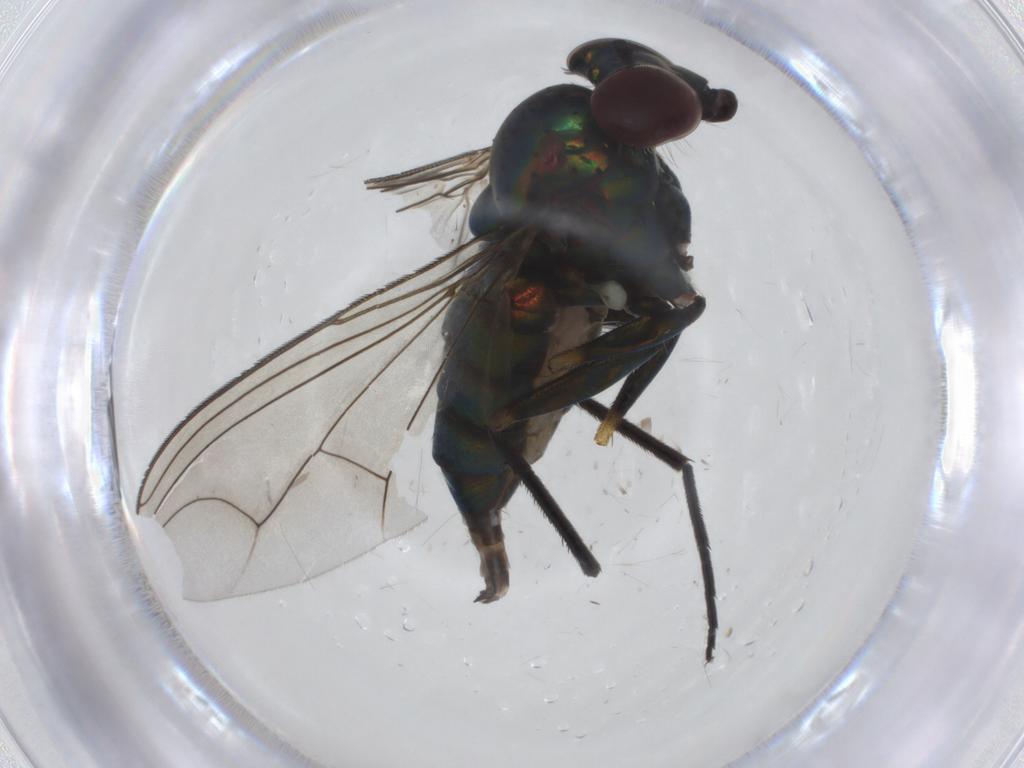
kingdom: Animalia
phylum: Arthropoda
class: Insecta
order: Diptera
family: Dolichopodidae
